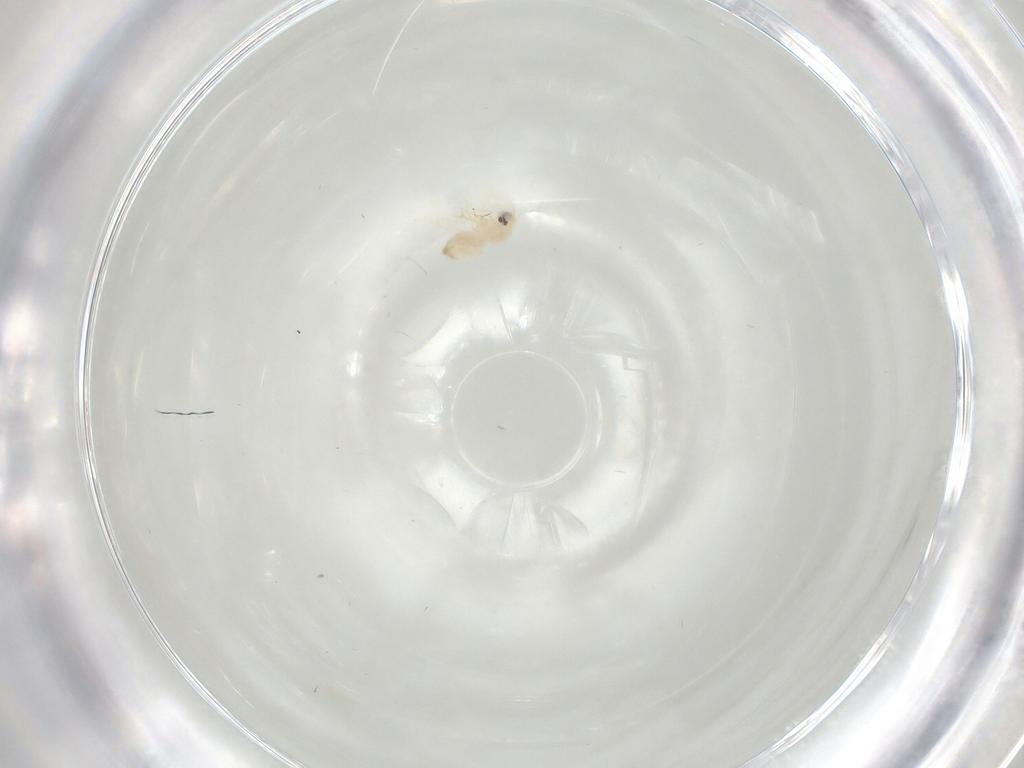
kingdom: Animalia
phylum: Arthropoda
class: Insecta
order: Hemiptera
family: Aleyrodidae
